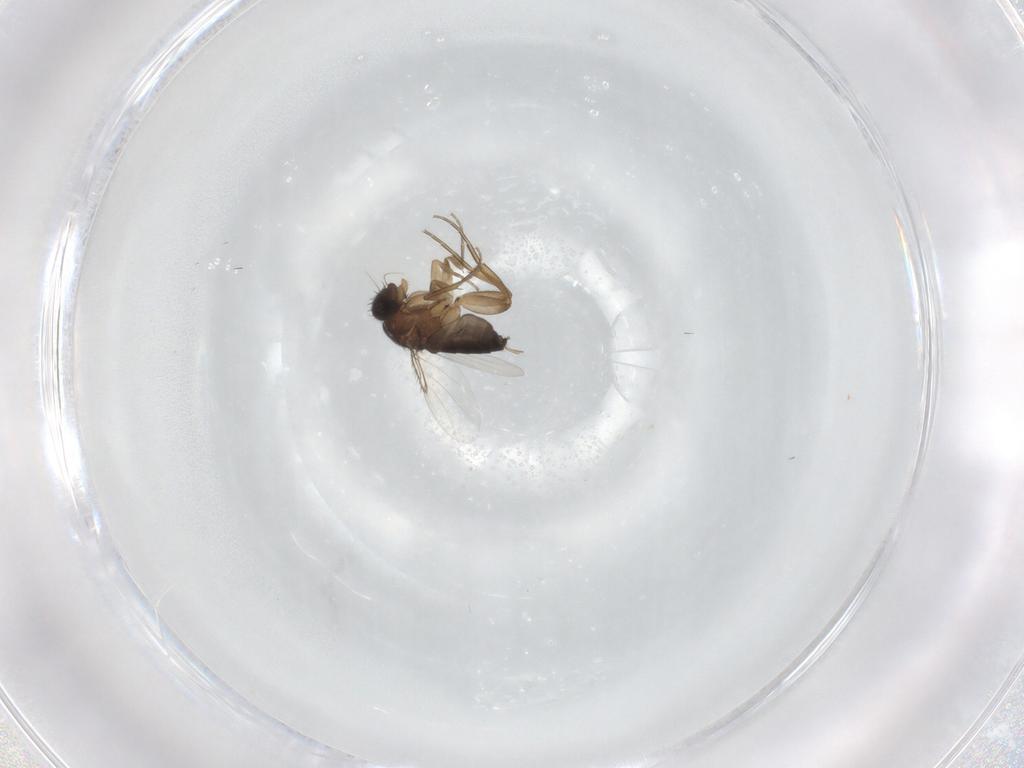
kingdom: Animalia
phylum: Arthropoda
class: Insecta
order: Diptera
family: Phoridae
